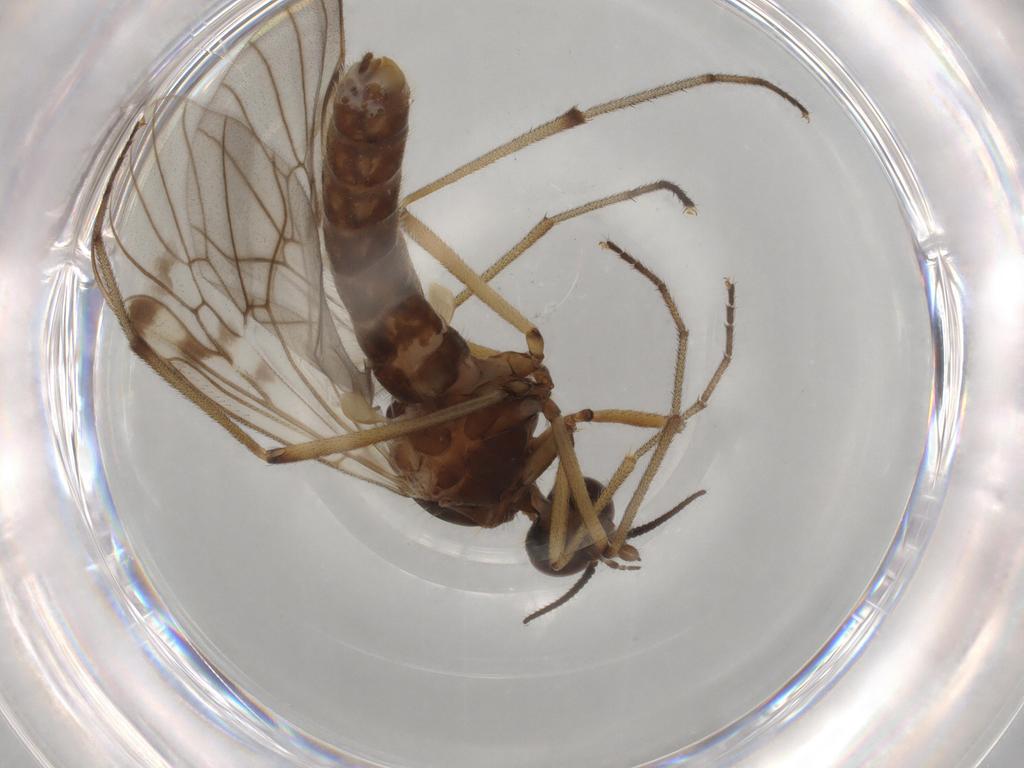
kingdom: Animalia
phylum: Arthropoda
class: Insecta
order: Diptera
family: Anisopodidae
